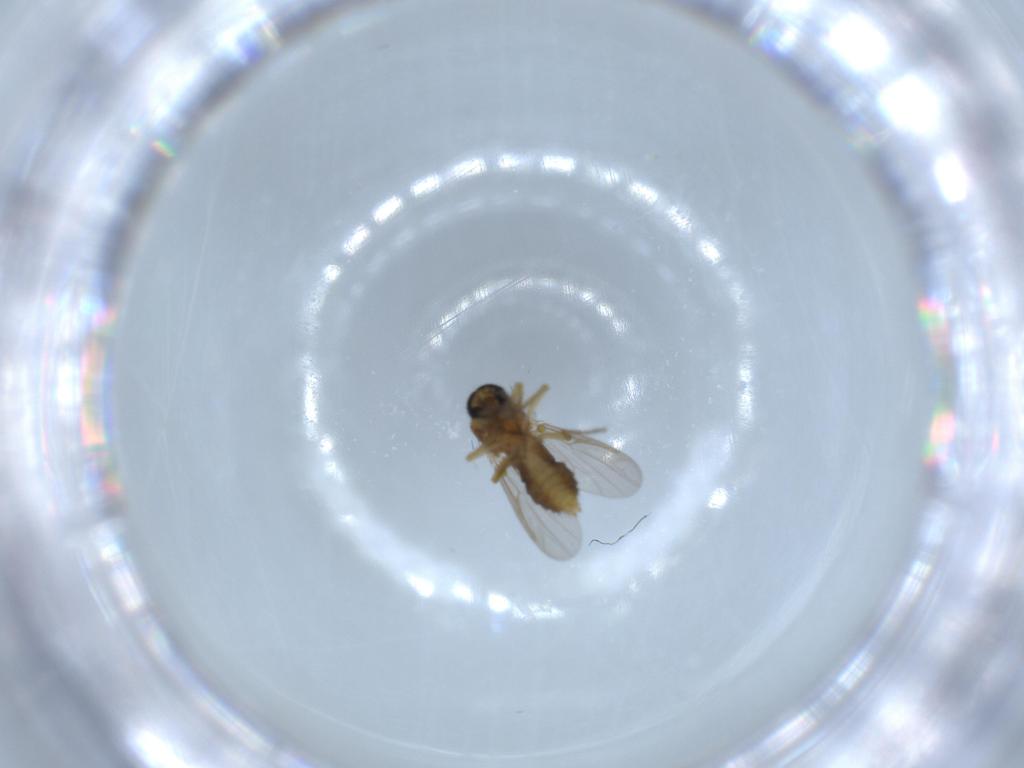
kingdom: Animalia
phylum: Arthropoda
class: Insecta
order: Diptera
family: Ceratopogonidae
